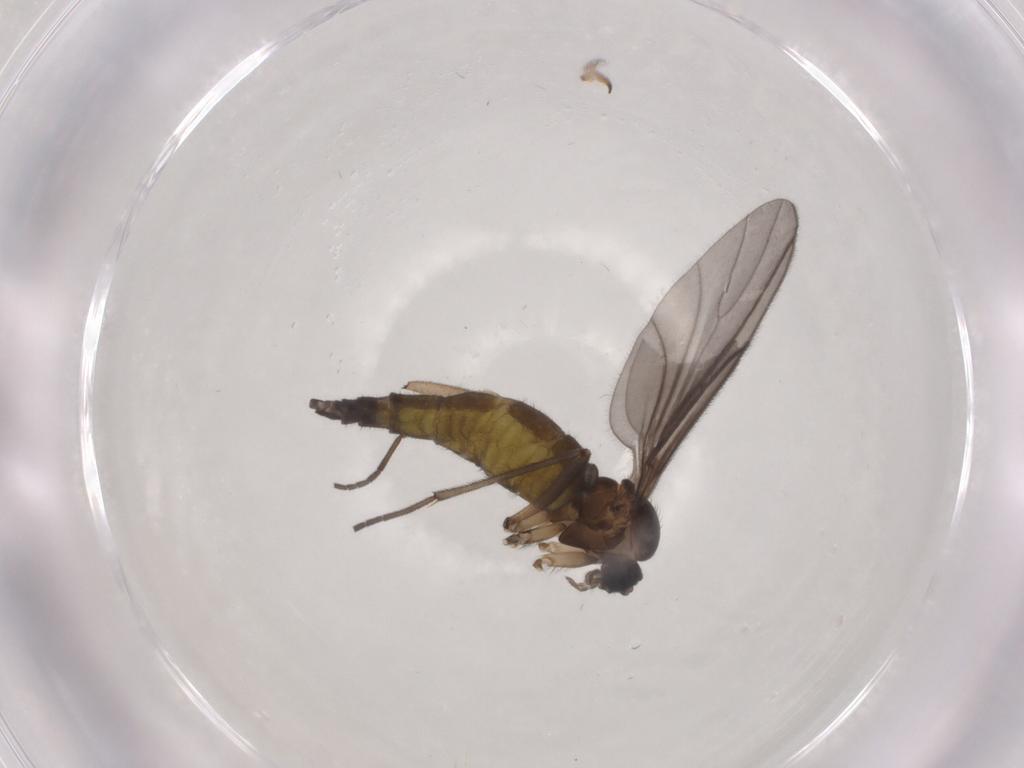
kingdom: Animalia
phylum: Arthropoda
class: Insecta
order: Diptera
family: Sciaridae
